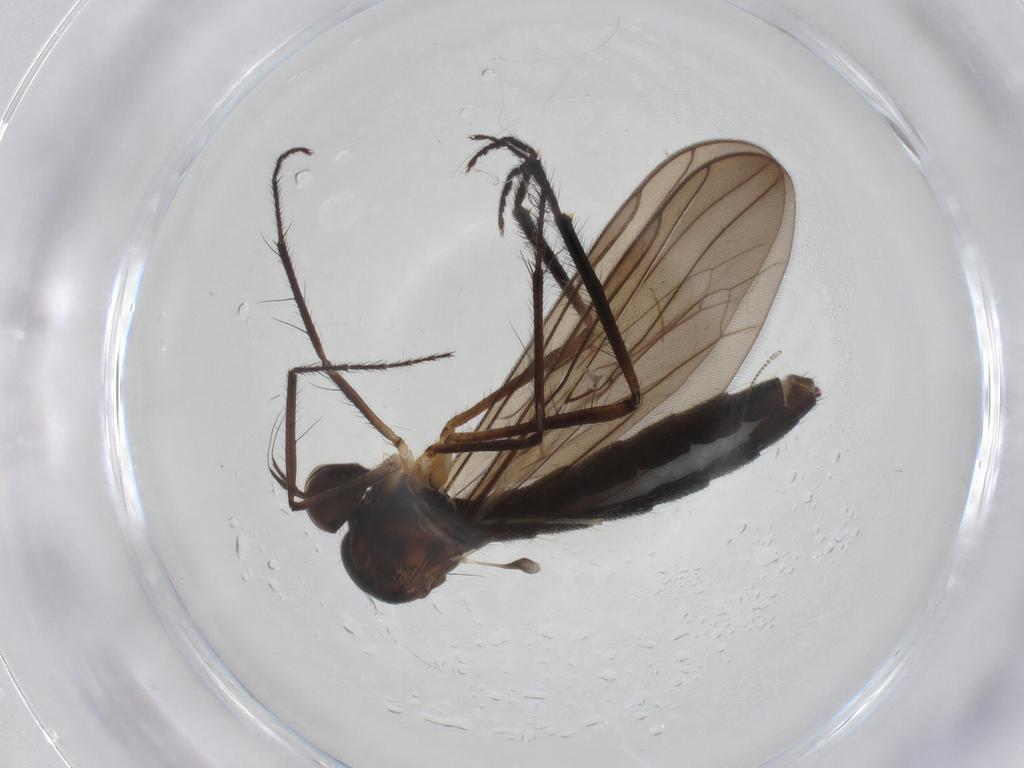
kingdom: Animalia
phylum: Arthropoda
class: Insecta
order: Diptera
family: Hybotidae
